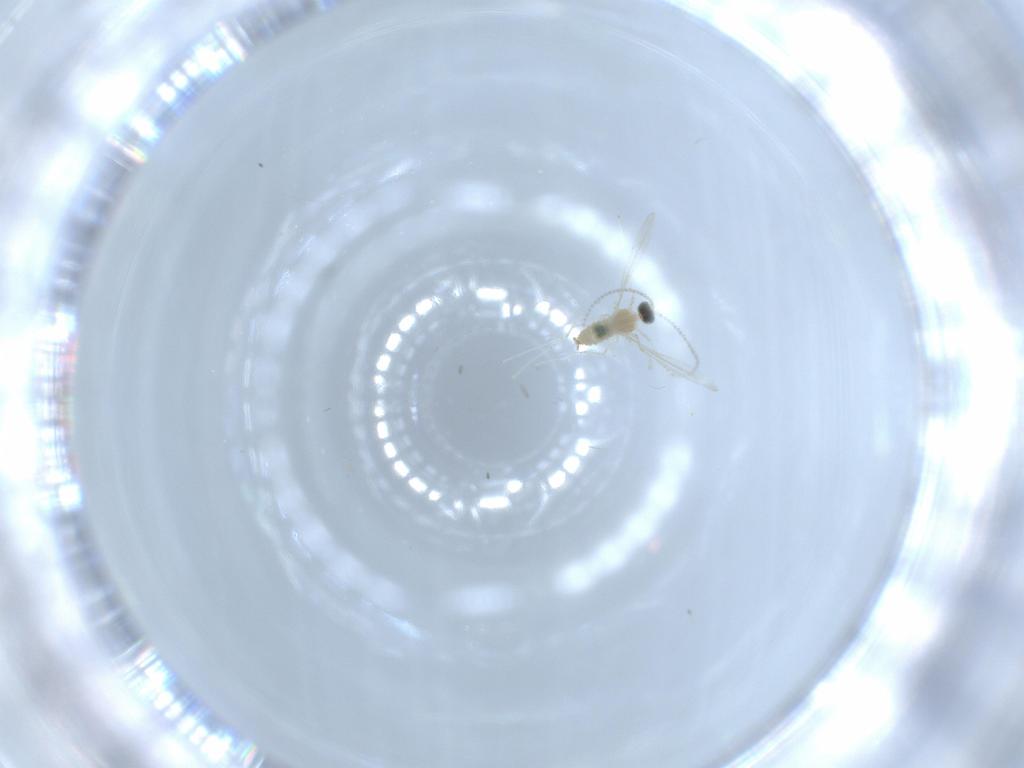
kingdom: Animalia
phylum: Arthropoda
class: Insecta
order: Diptera
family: Cecidomyiidae
